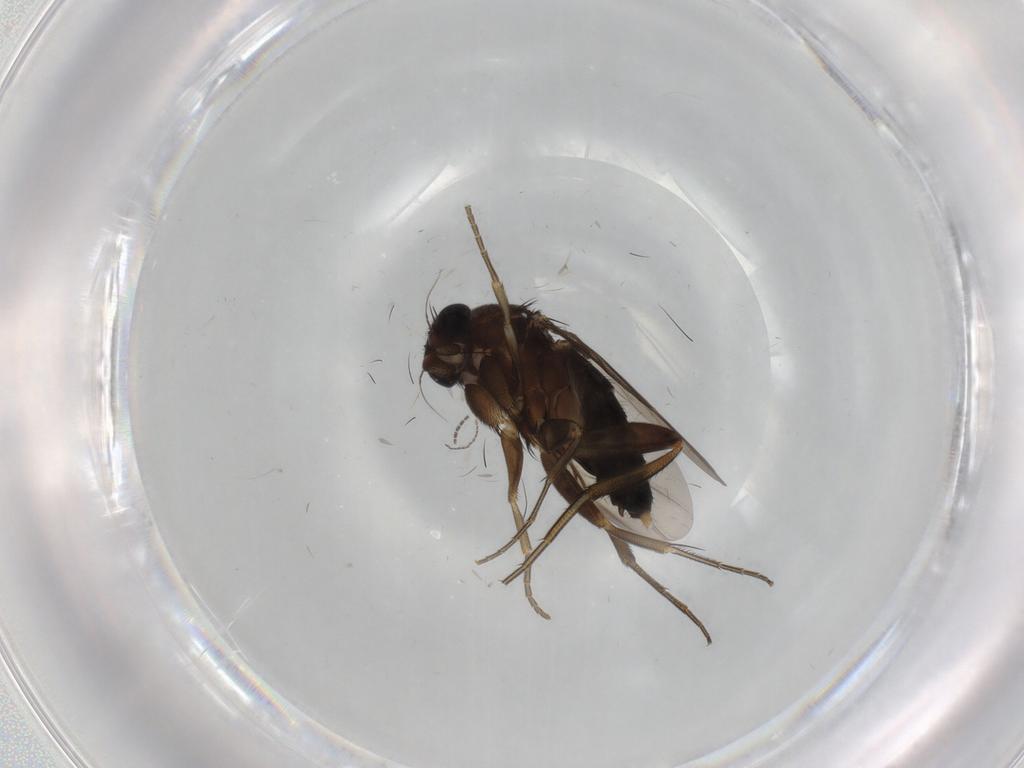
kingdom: Animalia
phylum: Arthropoda
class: Insecta
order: Diptera
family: Phoridae
